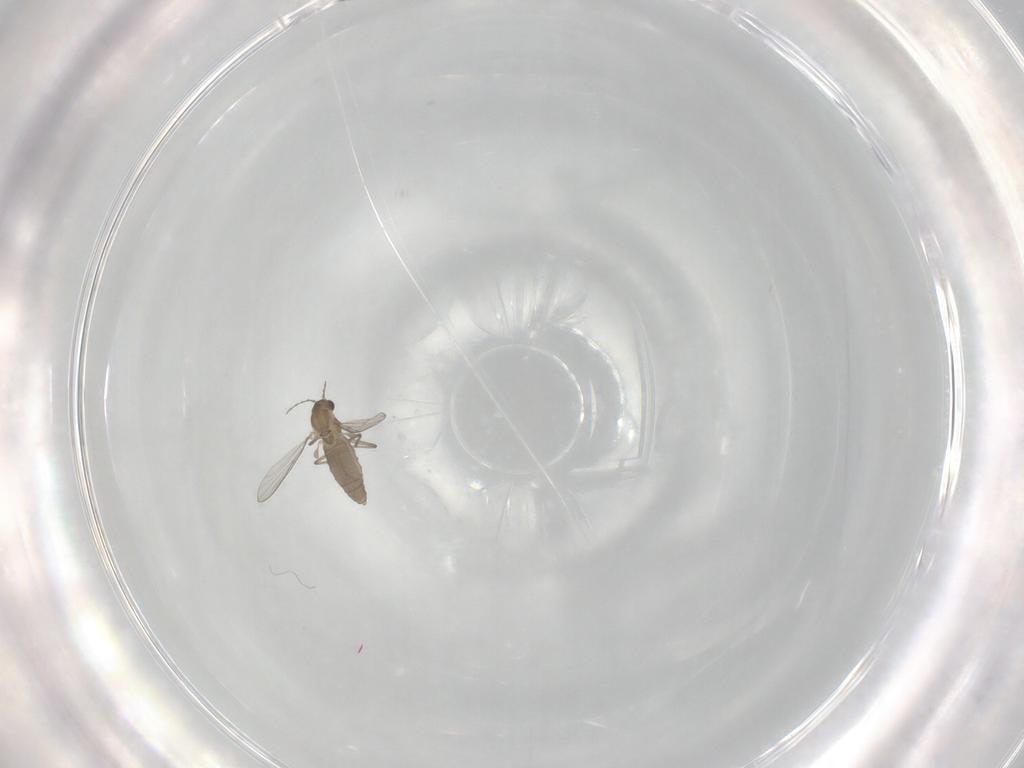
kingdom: Animalia
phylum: Arthropoda
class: Insecta
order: Diptera
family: Chironomidae
